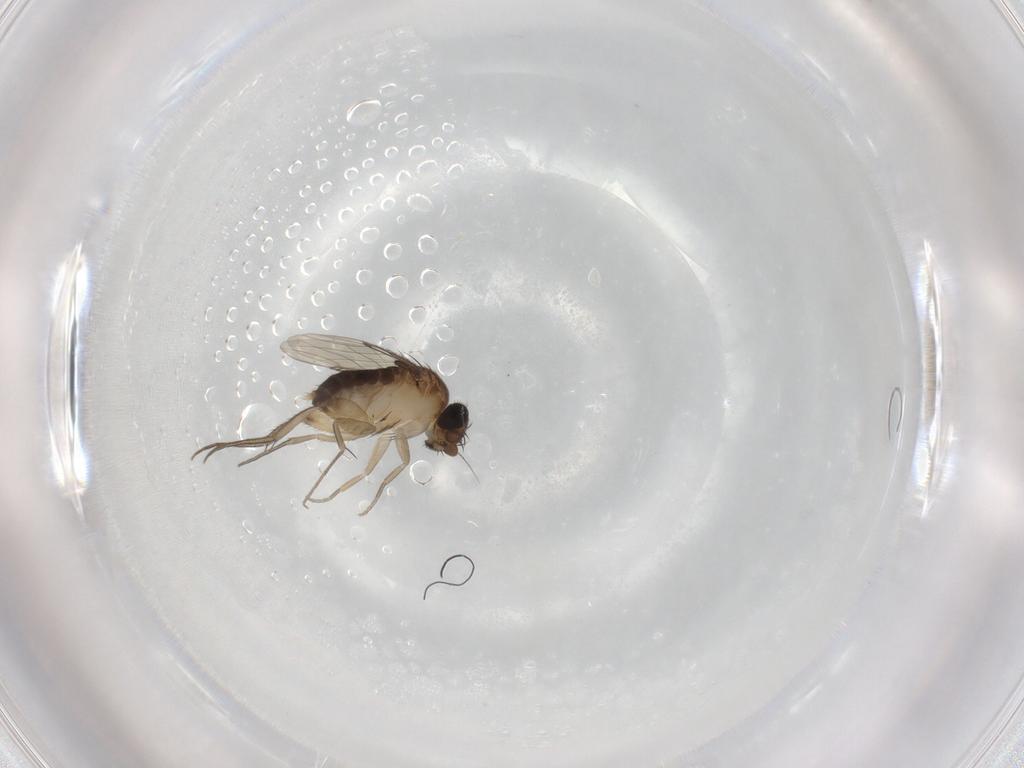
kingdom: Animalia
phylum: Arthropoda
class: Insecta
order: Diptera
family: Phoridae
